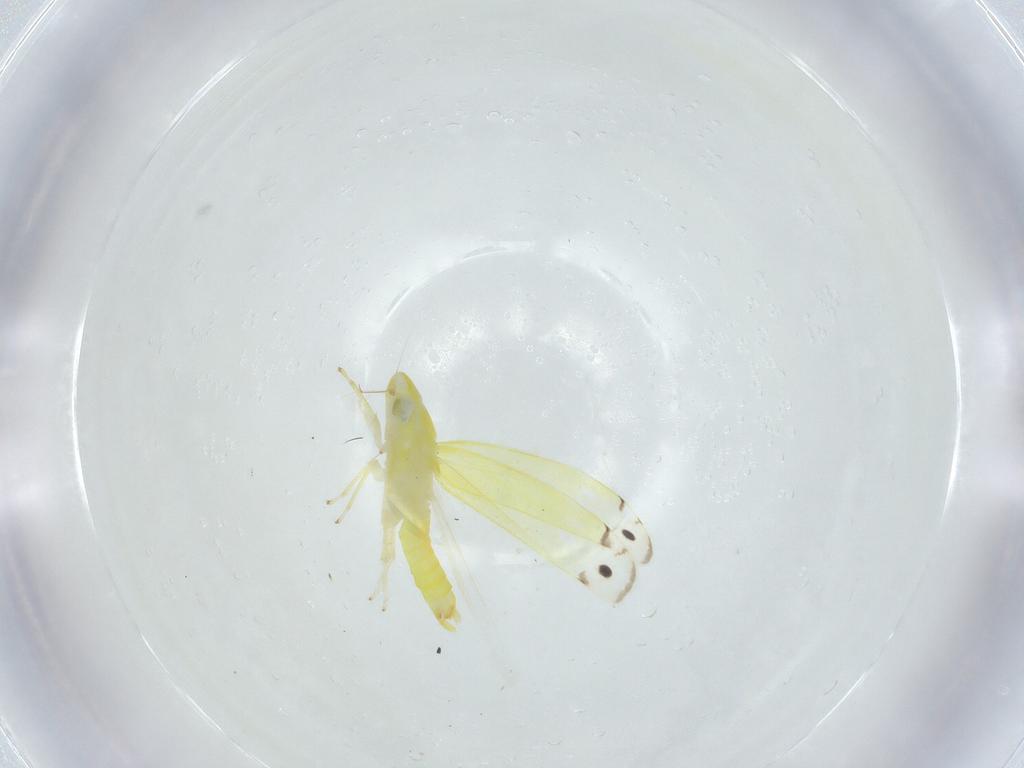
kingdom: Animalia
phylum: Arthropoda
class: Insecta
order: Hemiptera
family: Cicadellidae
